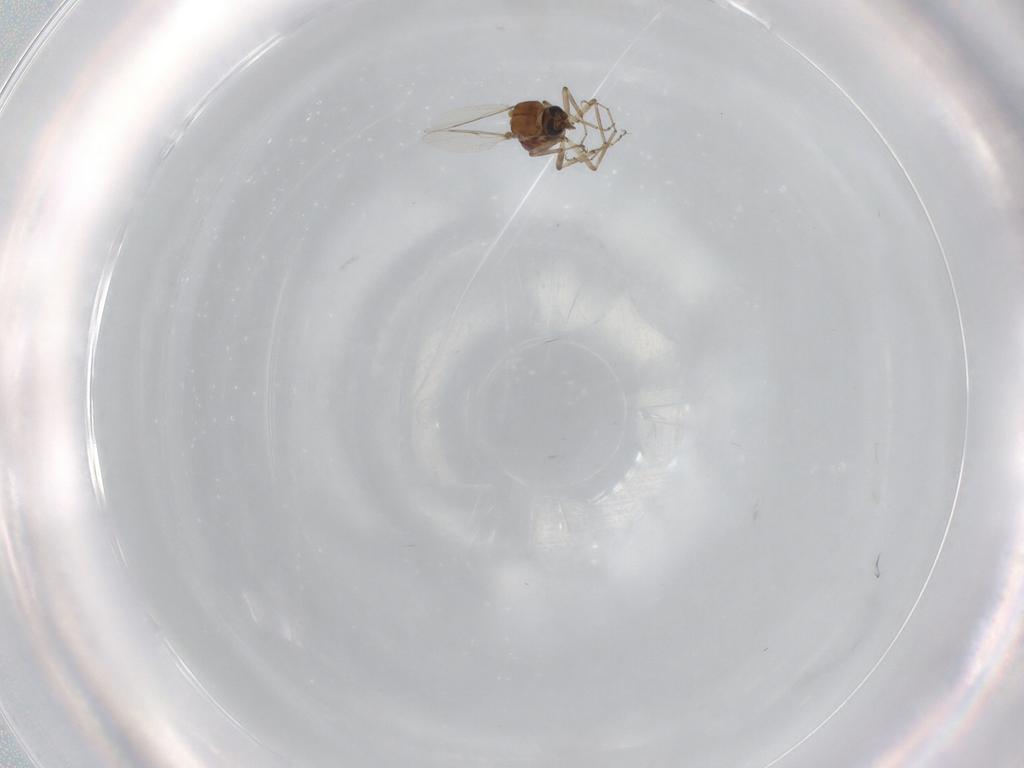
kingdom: Animalia
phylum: Arthropoda
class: Insecta
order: Diptera
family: Ceratopogonidae
